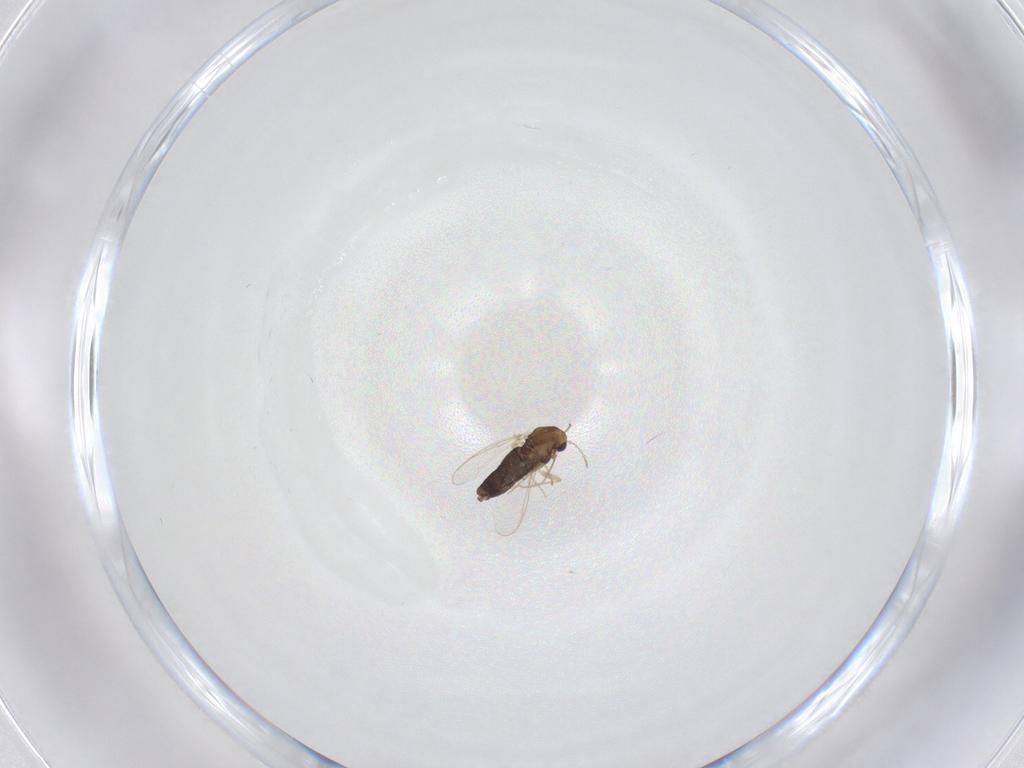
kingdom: Animalia
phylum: Arthropoda
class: Insecta
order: Diptera
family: Chironomidae
